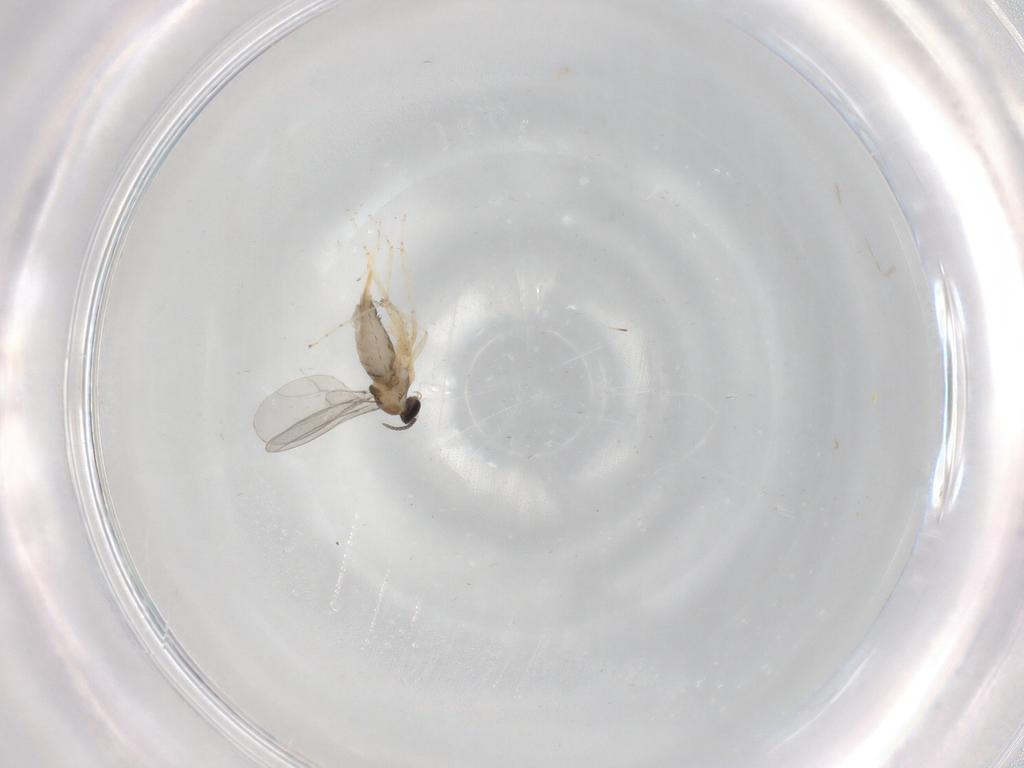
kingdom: Animalia
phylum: Arthropoda
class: Insecta
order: Diptera
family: Cecidomyiidae
